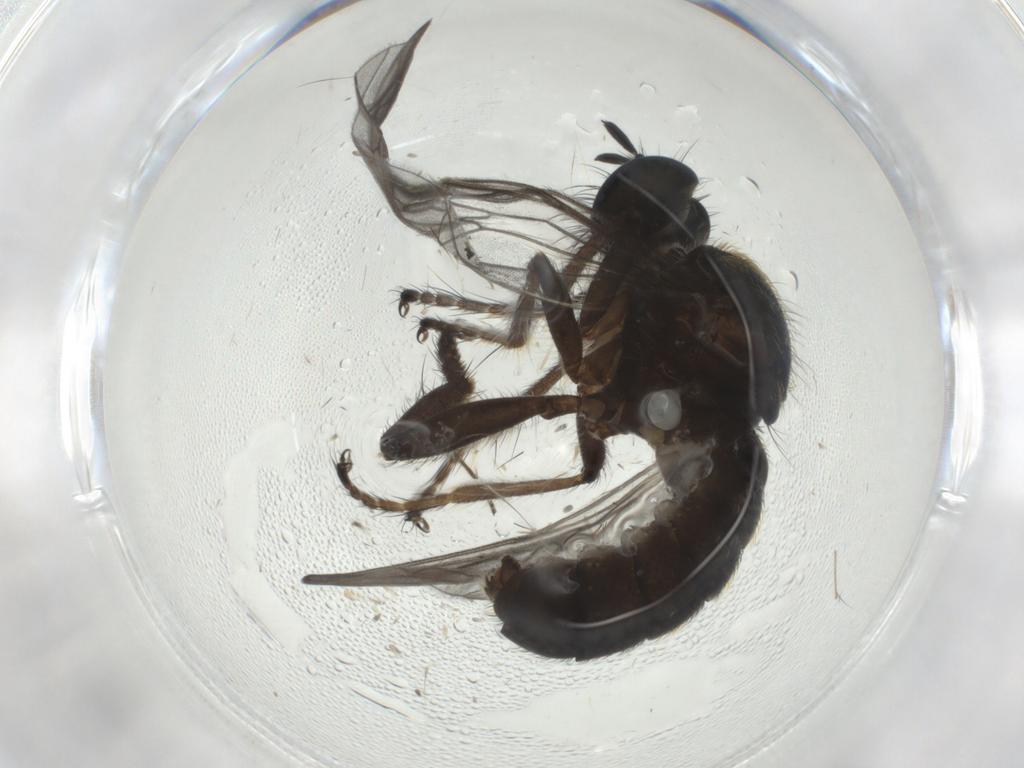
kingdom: Animalia
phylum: Arthropoda
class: Insecta
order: Diptera
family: Asilidae
